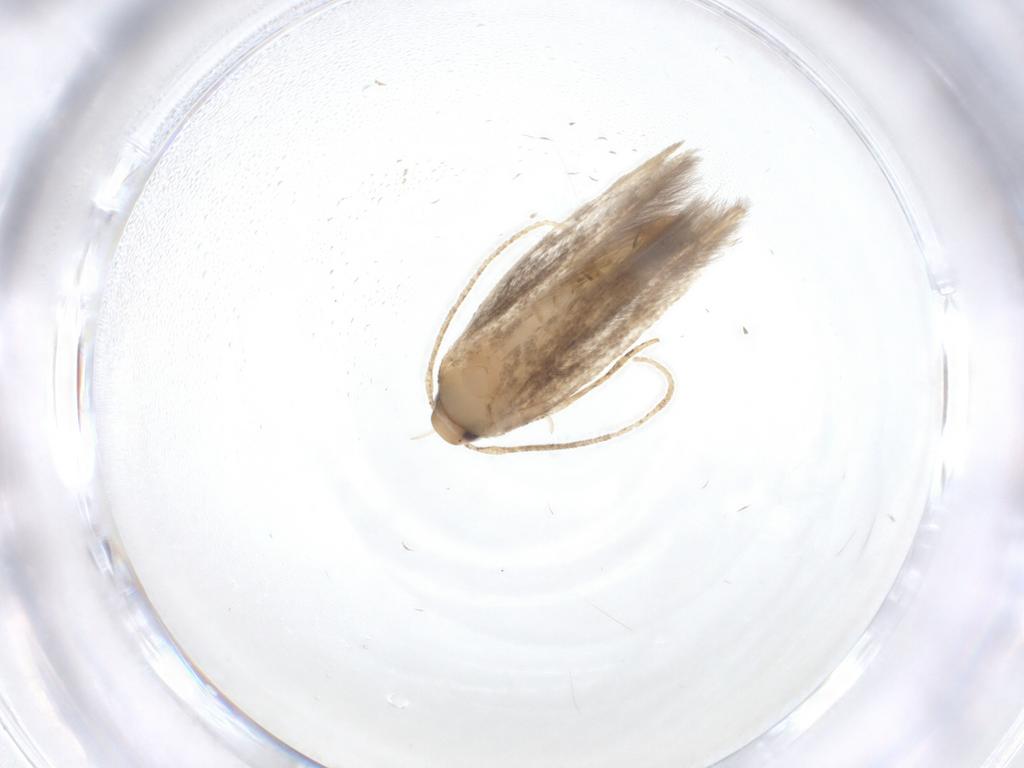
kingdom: Animalia
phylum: Arthropoda
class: Insecta
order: Lepidoptera
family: Cosmopterigidae
